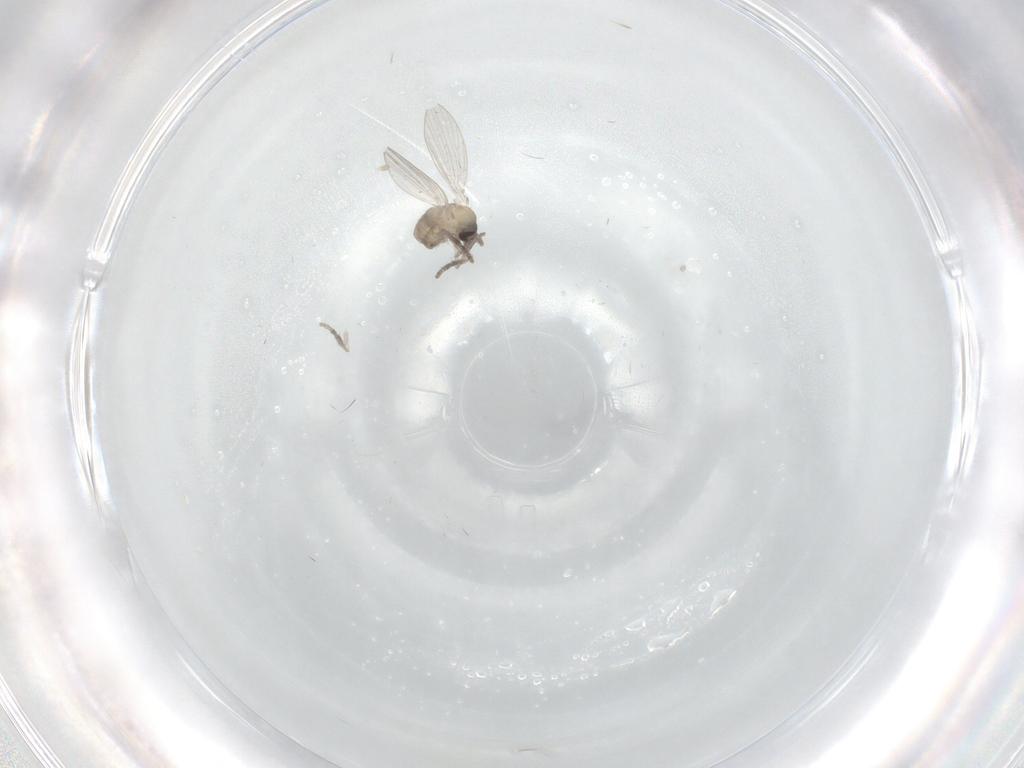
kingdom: Animalia
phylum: Arthropoda
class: Insecta
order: Diptera
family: Psychodidae
